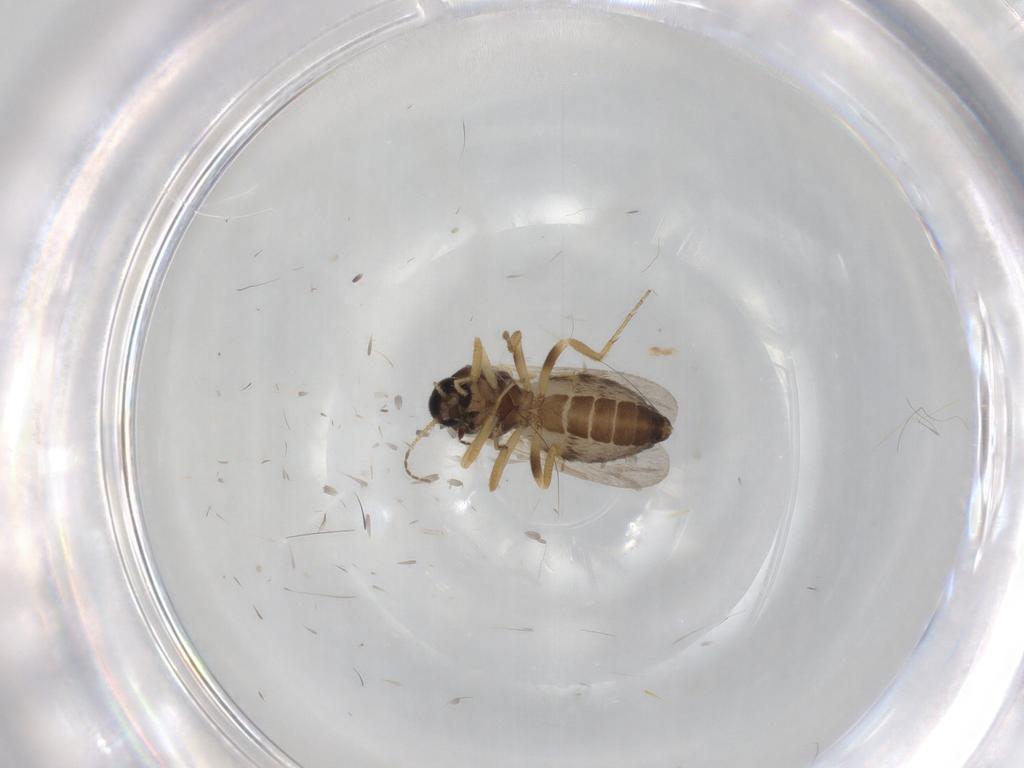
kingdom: Animalia
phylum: Arthropoda
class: Insecta
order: Diptera
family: Ceratopogonidae
